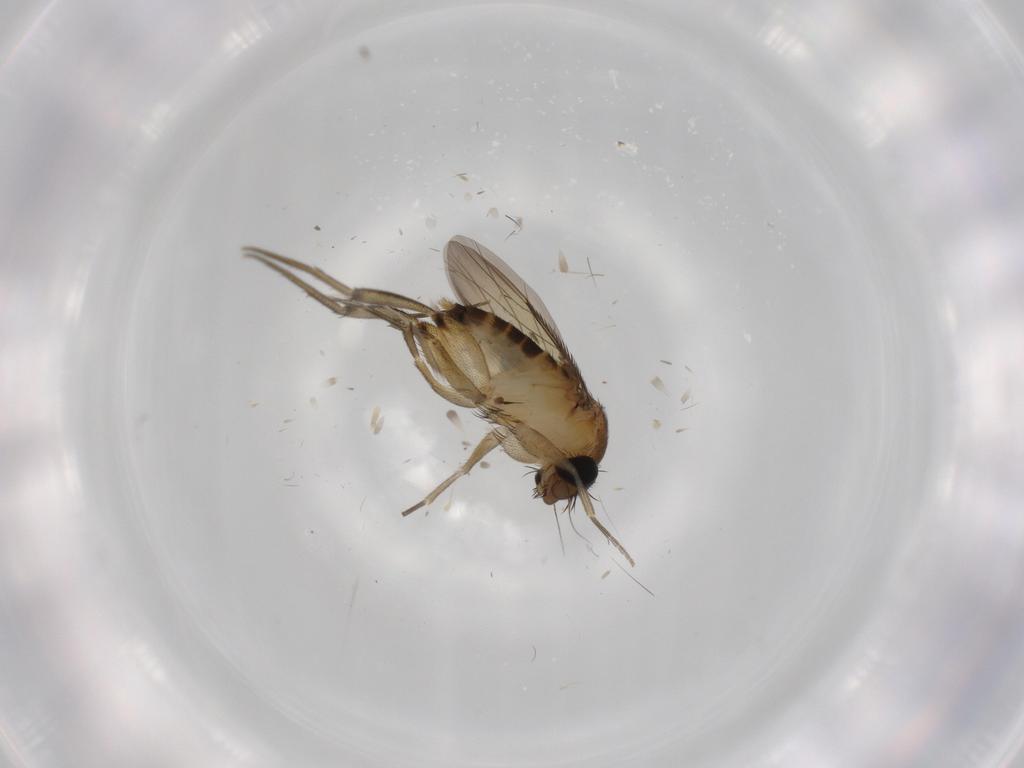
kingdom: Animalia
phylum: Arthropoda
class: Insecta
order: Diptera
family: Phoridae
